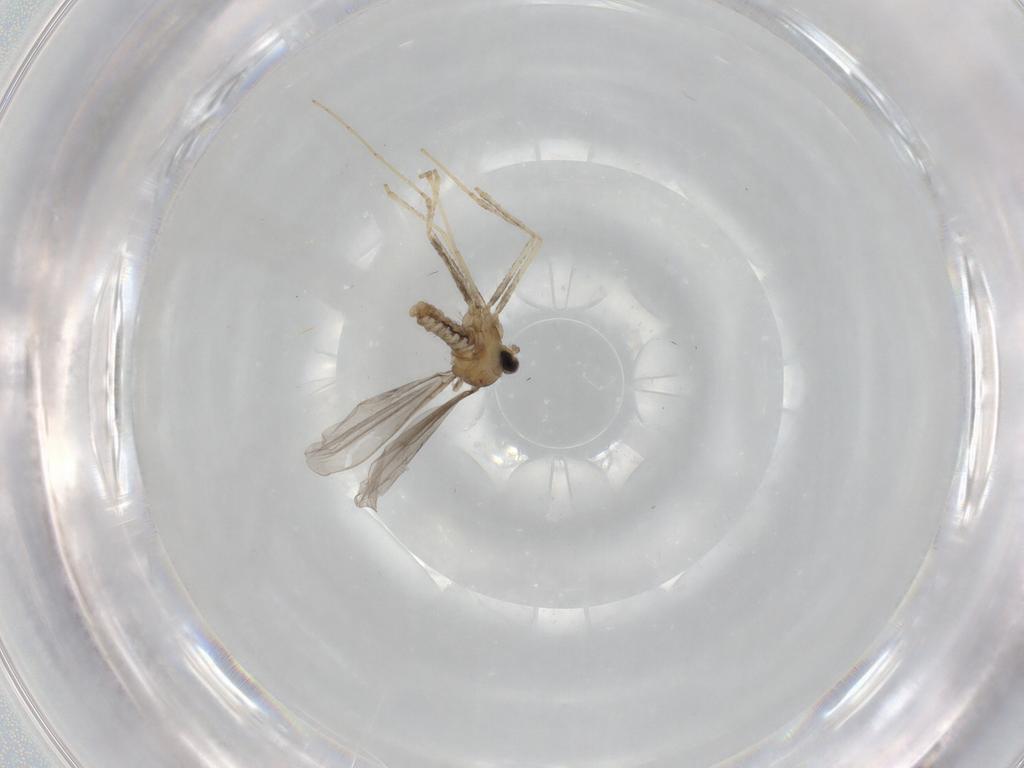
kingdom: Animalia
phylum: Arthropoda
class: Insecta
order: Diptera
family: Cecidomyiidae
